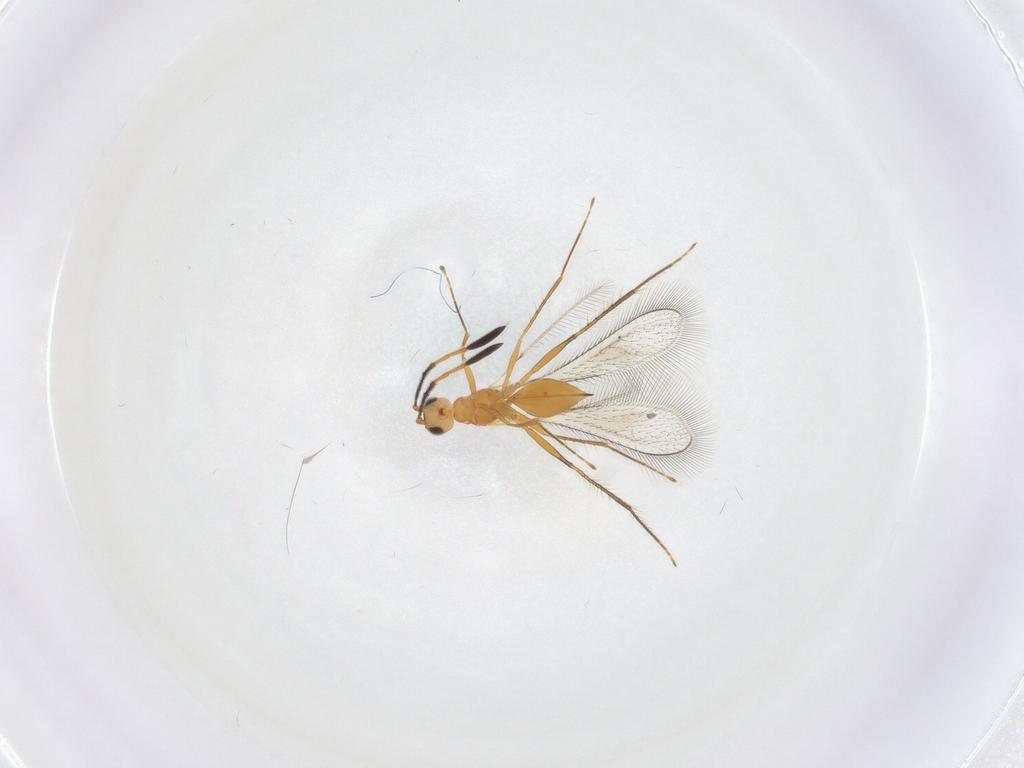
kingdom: Animalia
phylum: Arthropoda
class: Insecta
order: Hymenoptera
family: Mymaridae
